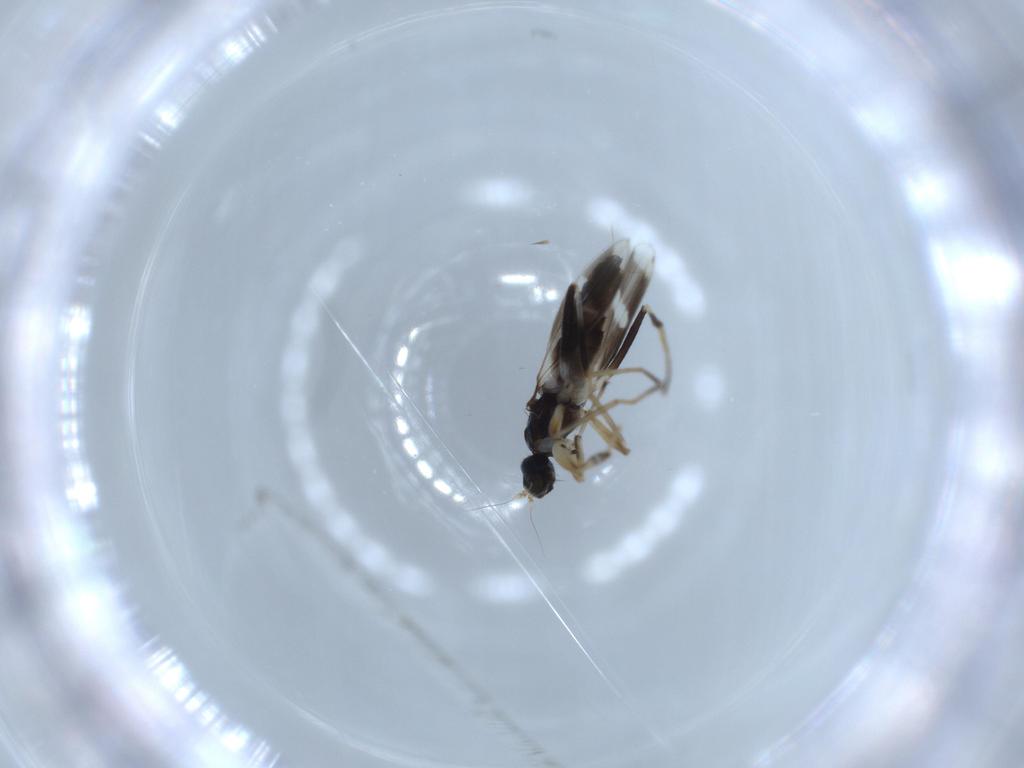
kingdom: Animalia
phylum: Arthropoda
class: Insecta
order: Diptera
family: Hybotidae
